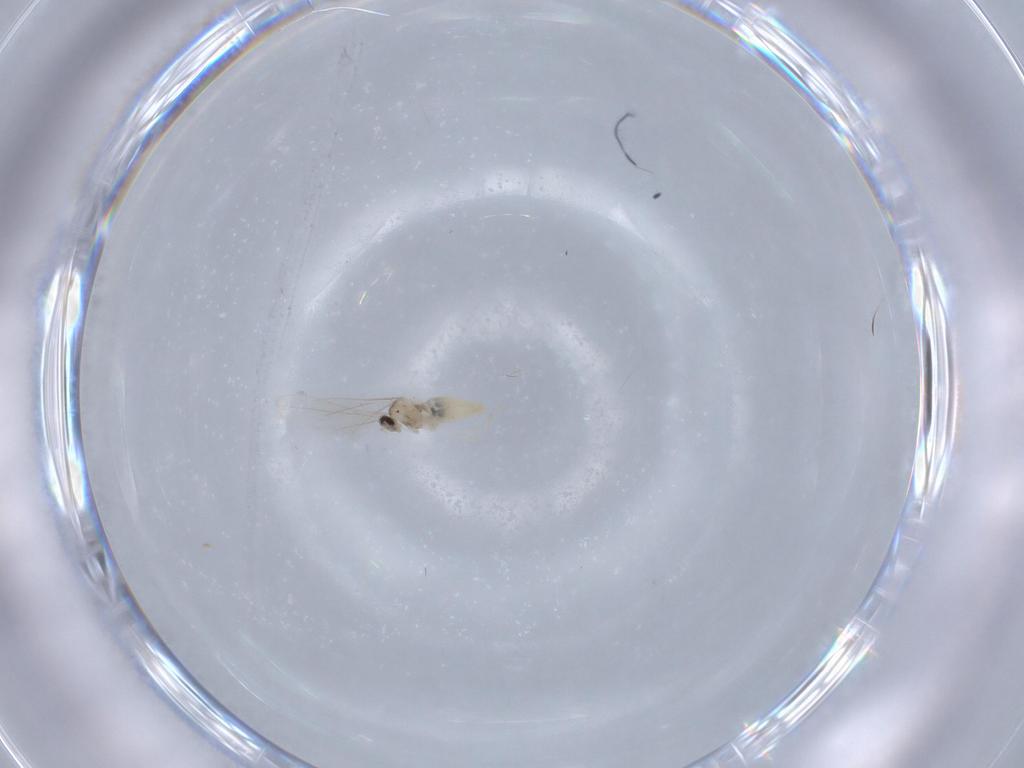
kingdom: Animalia
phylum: Arthropoda
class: Insecta
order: Diptera
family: Cecidomyiidae
